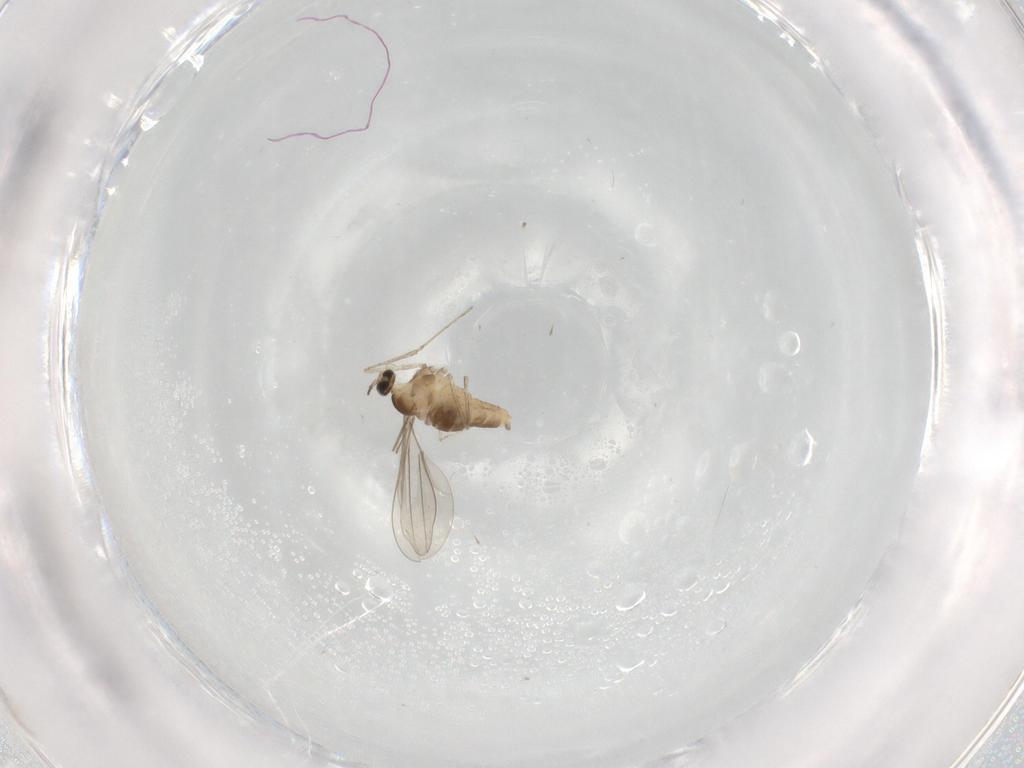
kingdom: Animalia
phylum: Arthropoda
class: Insecta
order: Diptera
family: Cecidomyiidae
